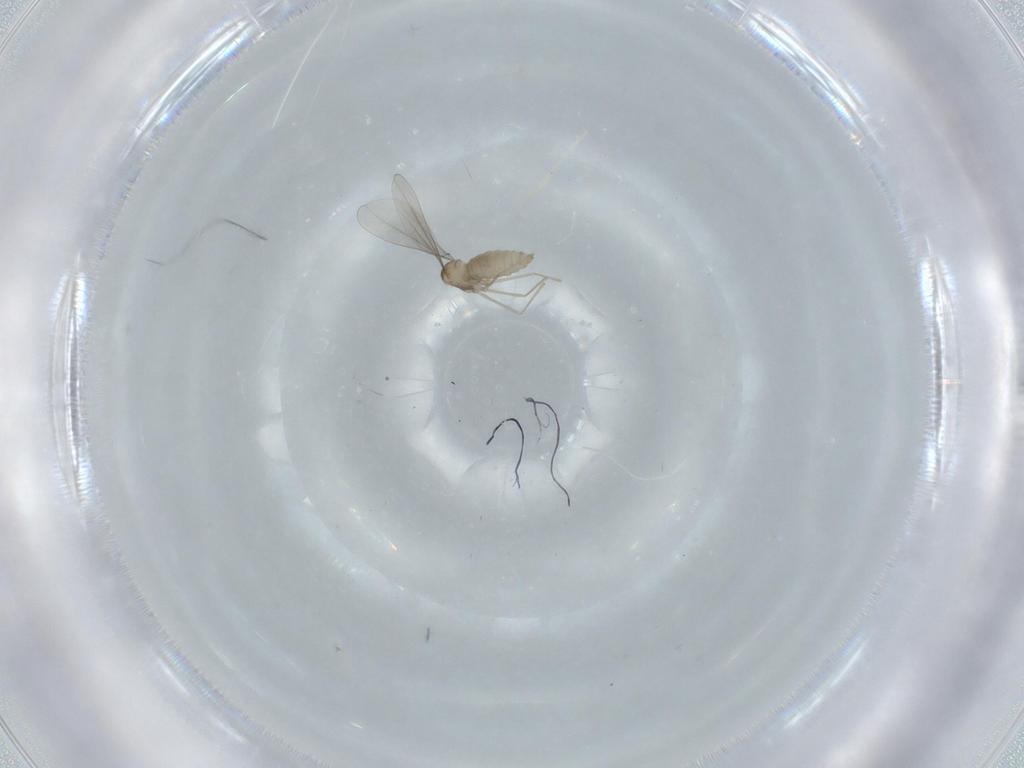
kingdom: Animalia
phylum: Arthropoda
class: Insecta
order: Diptera
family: Cecidomyiidae
